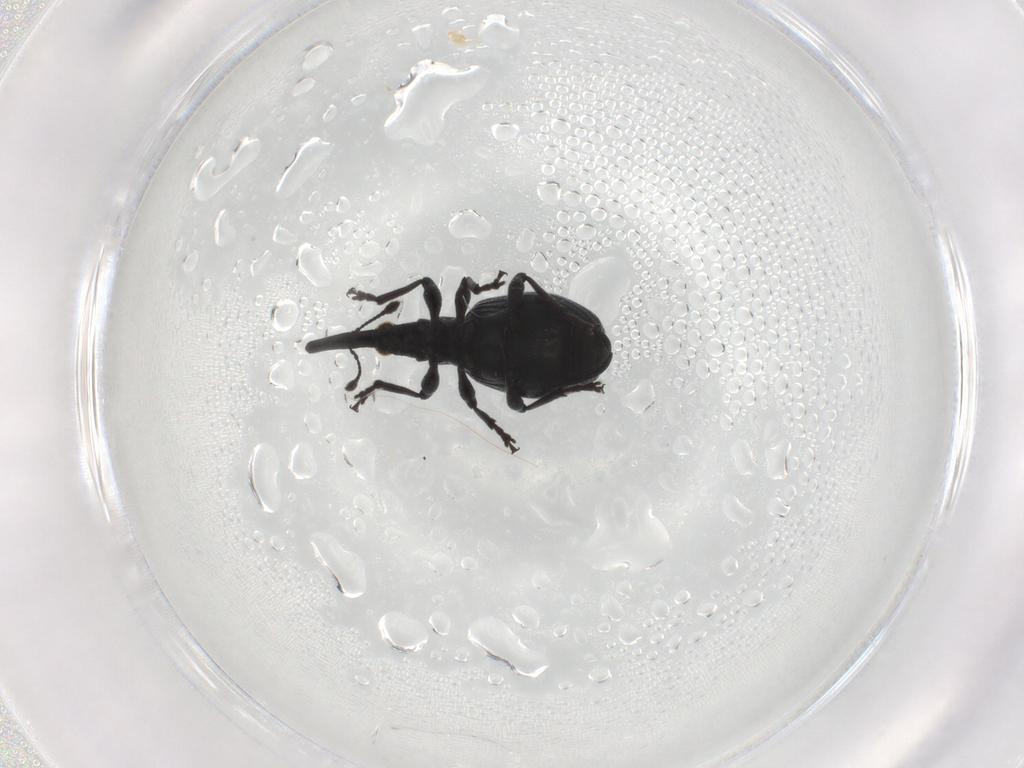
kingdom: Animalia
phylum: Arthropoda
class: Insecta
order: Coleoptera
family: Brentidae
